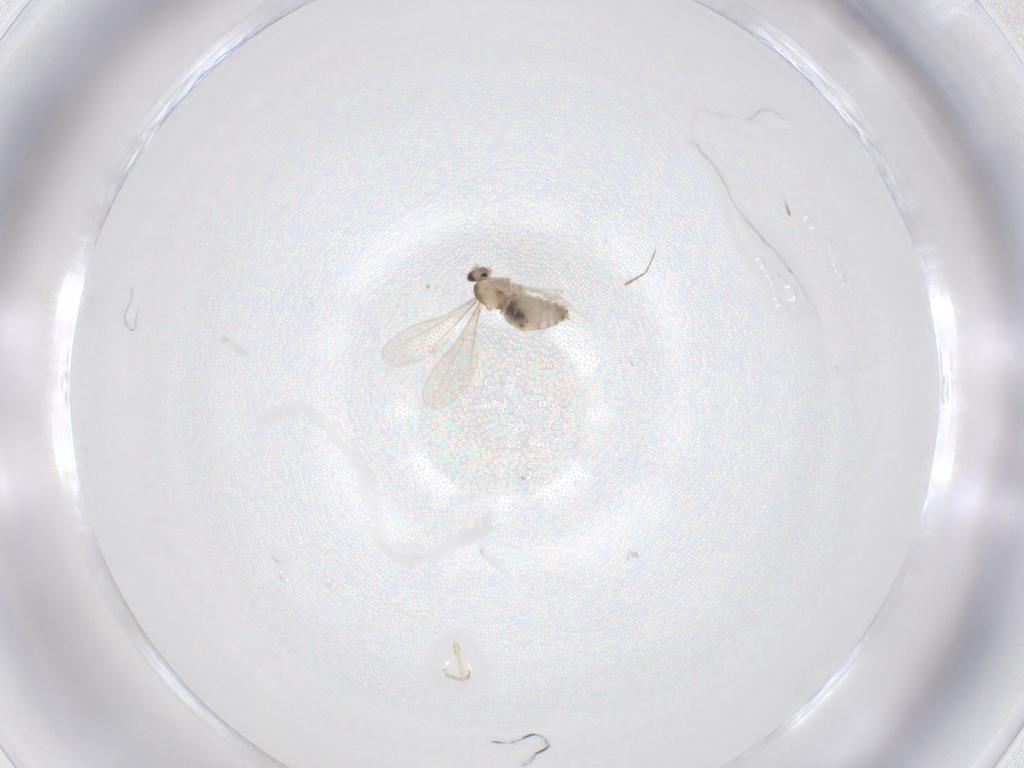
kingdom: Animalia
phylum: Arthropoda
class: Insecta
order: Diptera
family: Cecidomyiidae
